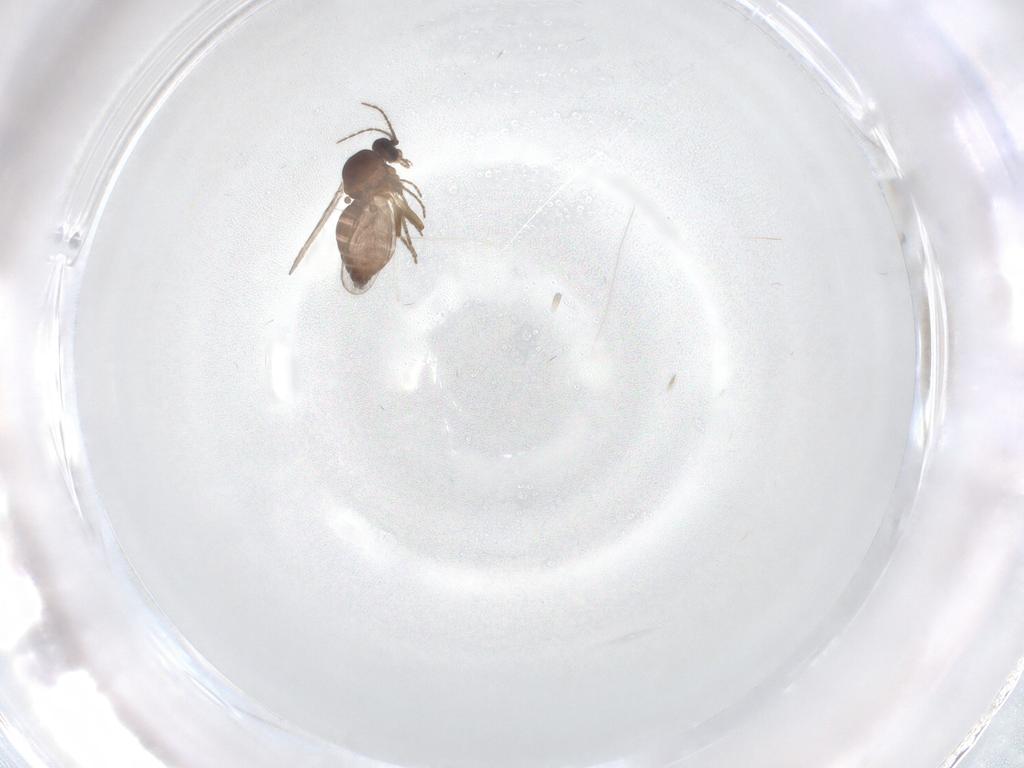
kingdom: Animalia
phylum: Arthropoda
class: Insecta
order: Diptera
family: Ceratopogonidae
